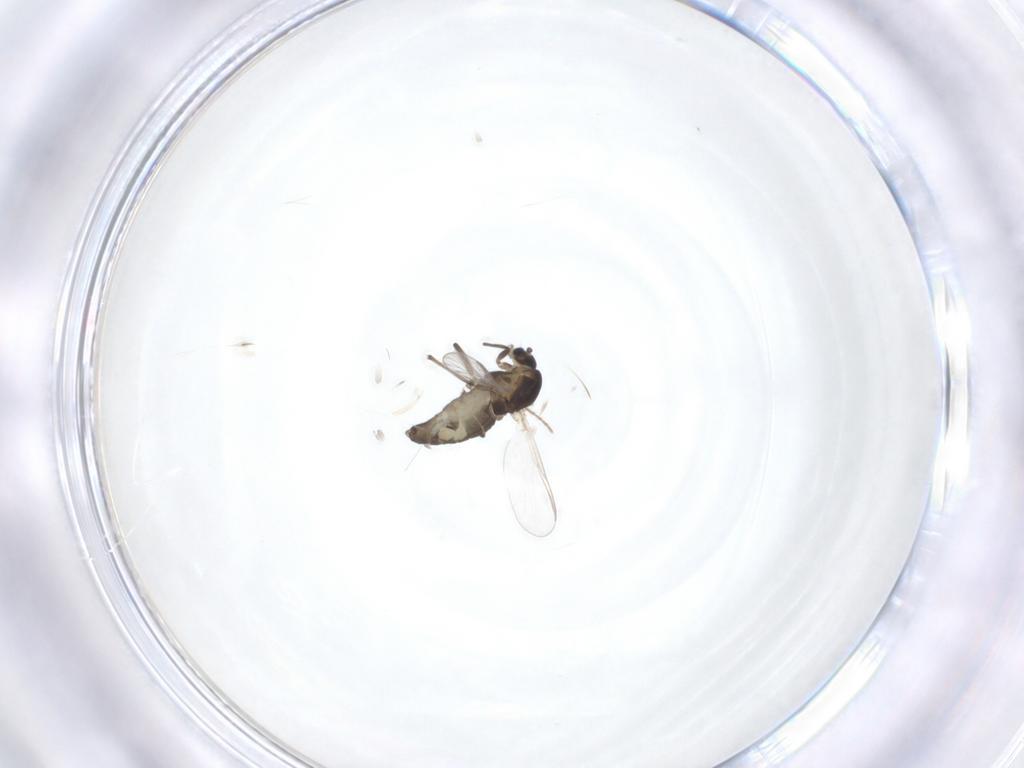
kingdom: Animalia
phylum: Arthropoda
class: Insecta
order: Diptera
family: Chironomidae
